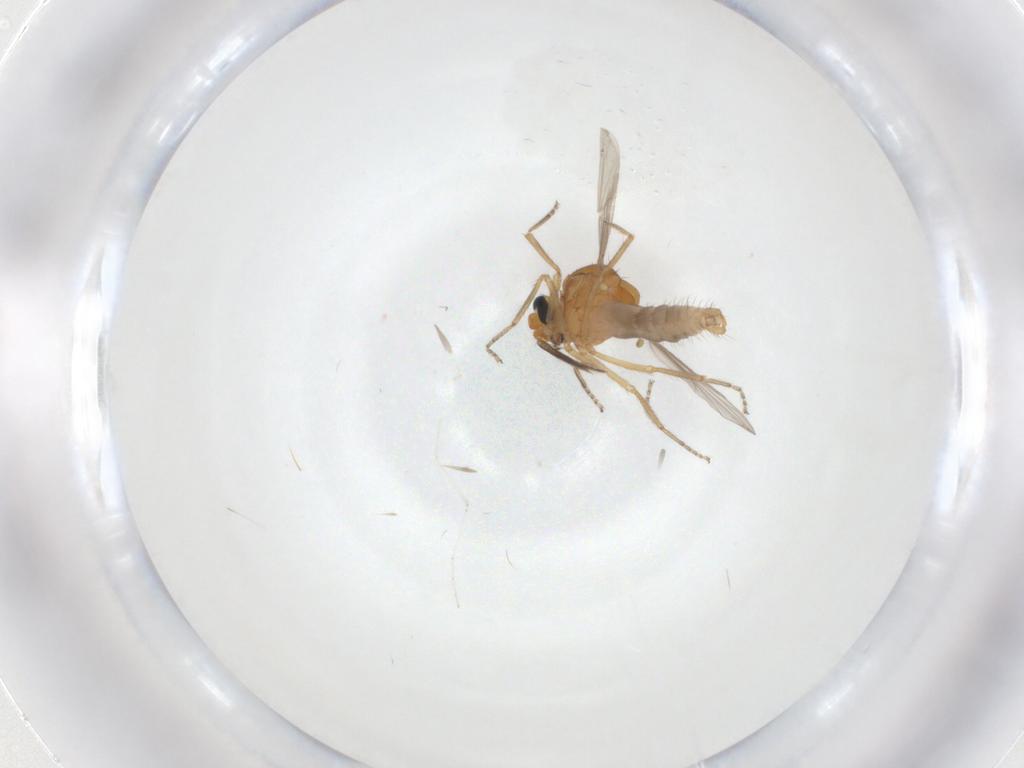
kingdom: Animalia
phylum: Arthropoda
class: Insecta
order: Diptera
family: Ceratopogonidae
